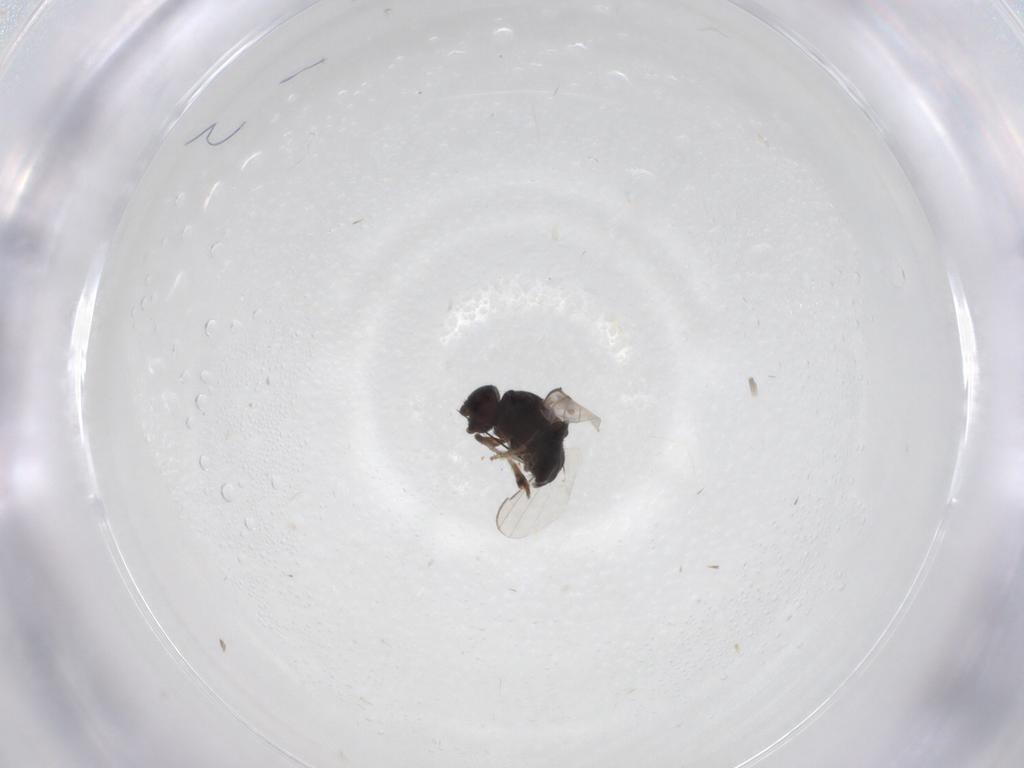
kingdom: Animalia
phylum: Arthropoda
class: Insecta
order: Diptera
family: Milichiidae
